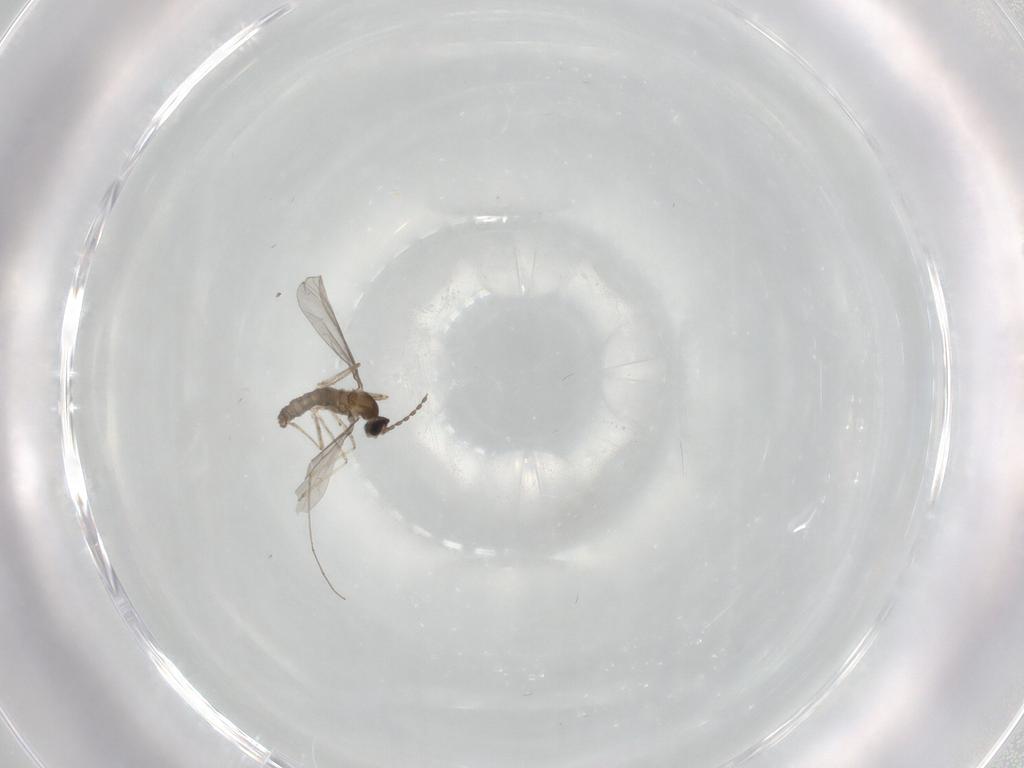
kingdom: Animalia
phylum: Arthropoda
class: Insecta
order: Diptera
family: Cecidomyiidae
